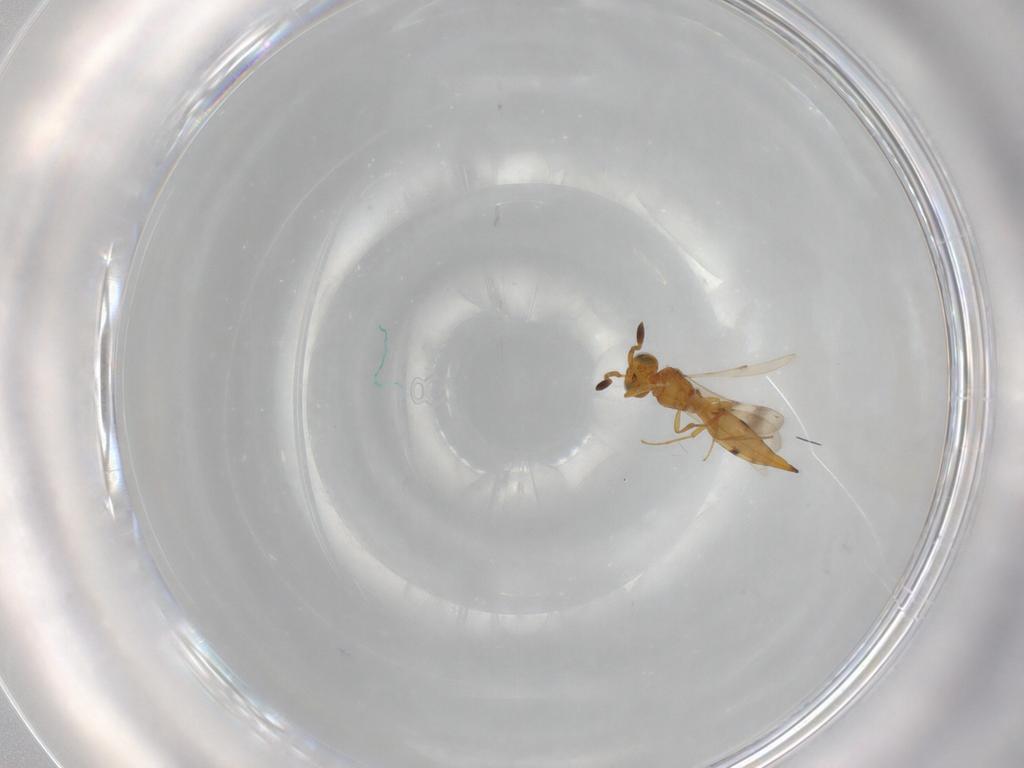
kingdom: Animalia
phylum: Arthropoda
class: Insecta
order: Hymenoptera
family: Scelionidae
